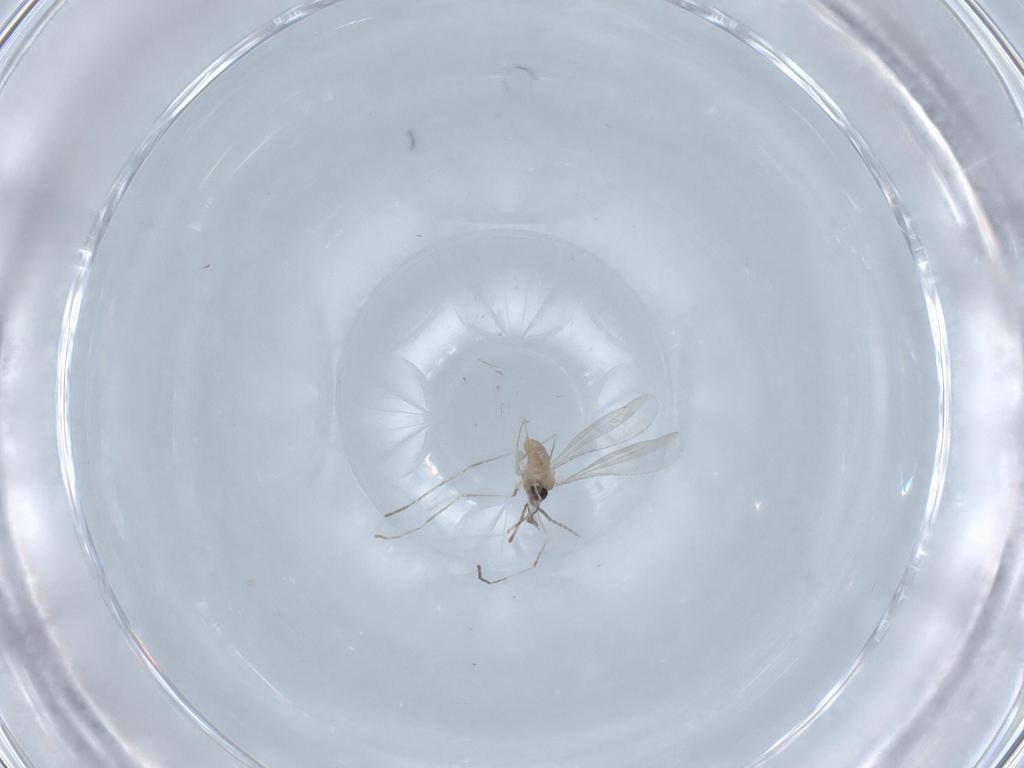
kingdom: Animalia
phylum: Arthropoda
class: Insecta
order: Diptera
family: Cecidomyiidae
